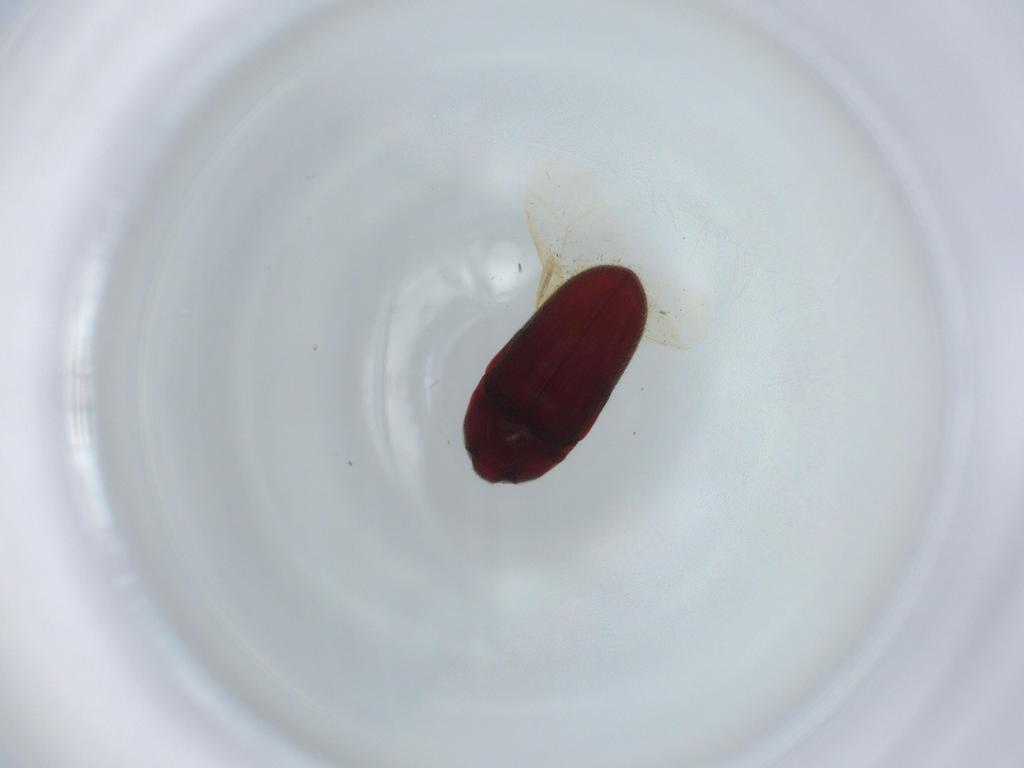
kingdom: Animalia
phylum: Arthropoda
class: Insecta
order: Coleoptera
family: Throscidae
